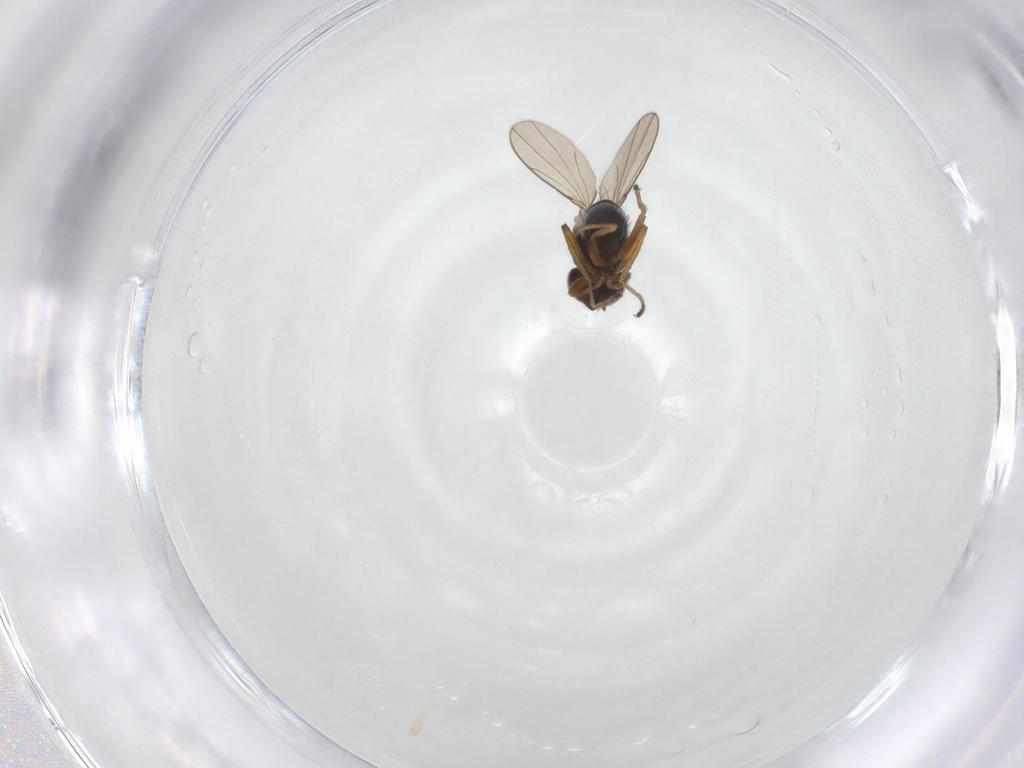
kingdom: Animalia
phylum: Arthropoda
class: Insecta
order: Diptera
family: Ephydridae
